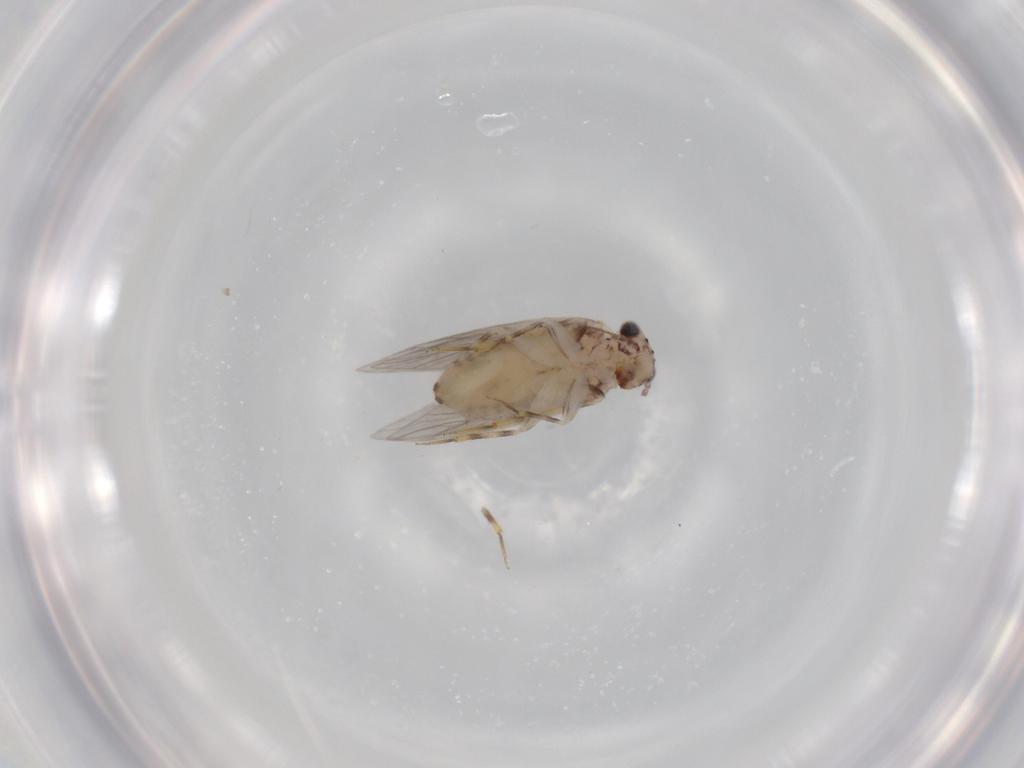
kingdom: Animalia
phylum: Arthropoda
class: Insecta
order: Psocodea
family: Lepidopsocidae
